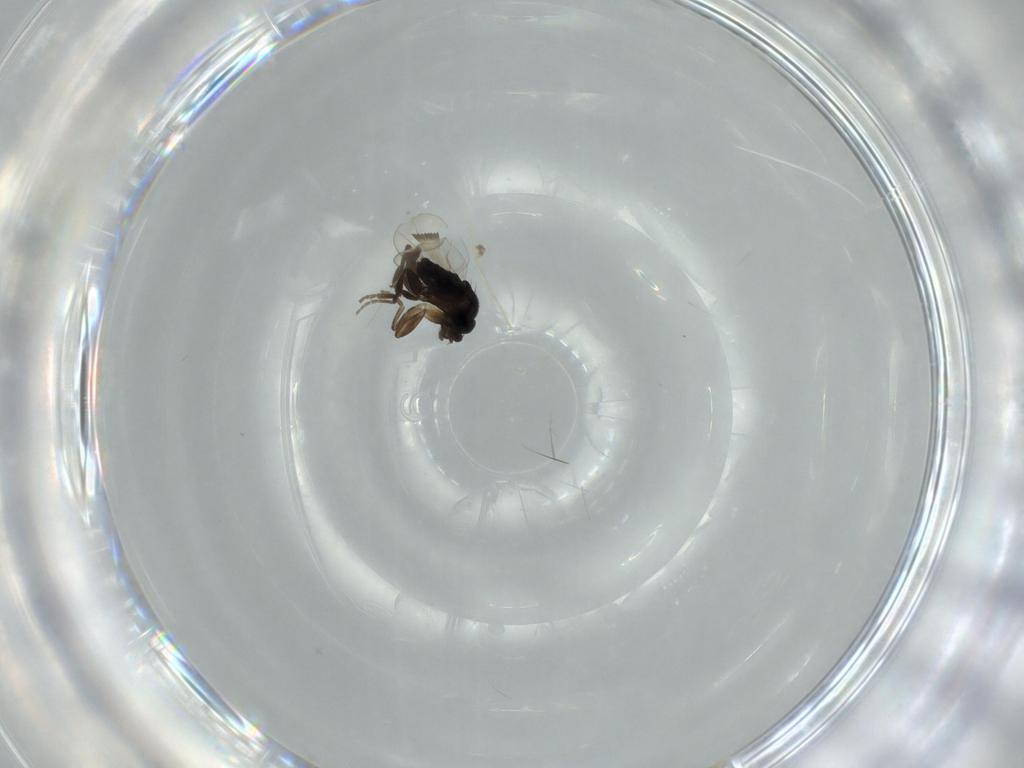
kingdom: Animalia
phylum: Arthropoda
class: Insecta
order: Diptera
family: Phoridae
